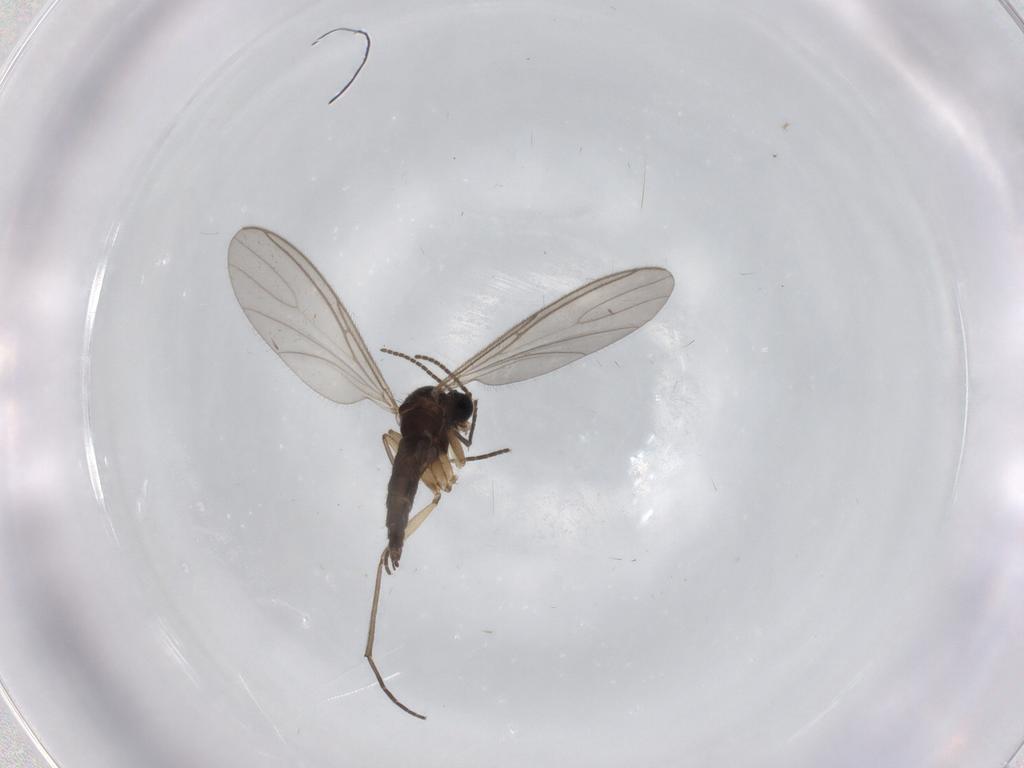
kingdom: Animalia
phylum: Arthropoda
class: Insecta
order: Diptera
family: Sciaridae
